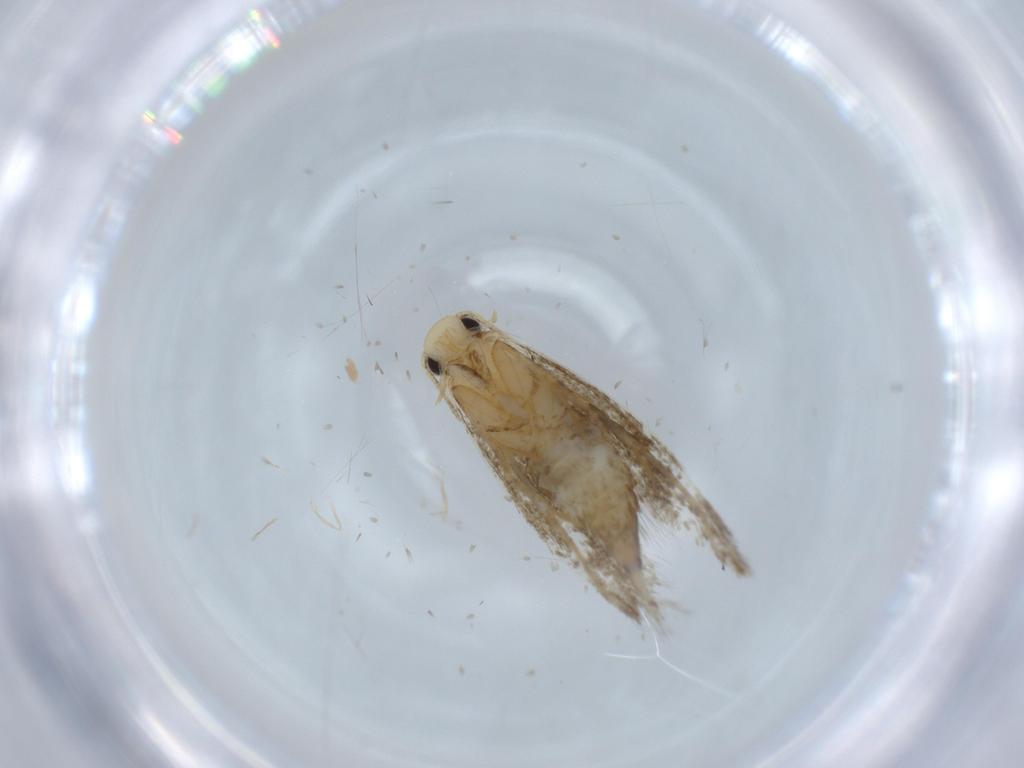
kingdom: Animalia
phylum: Arthropoda
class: Insecta
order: Lepidoptera
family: Tineidae
